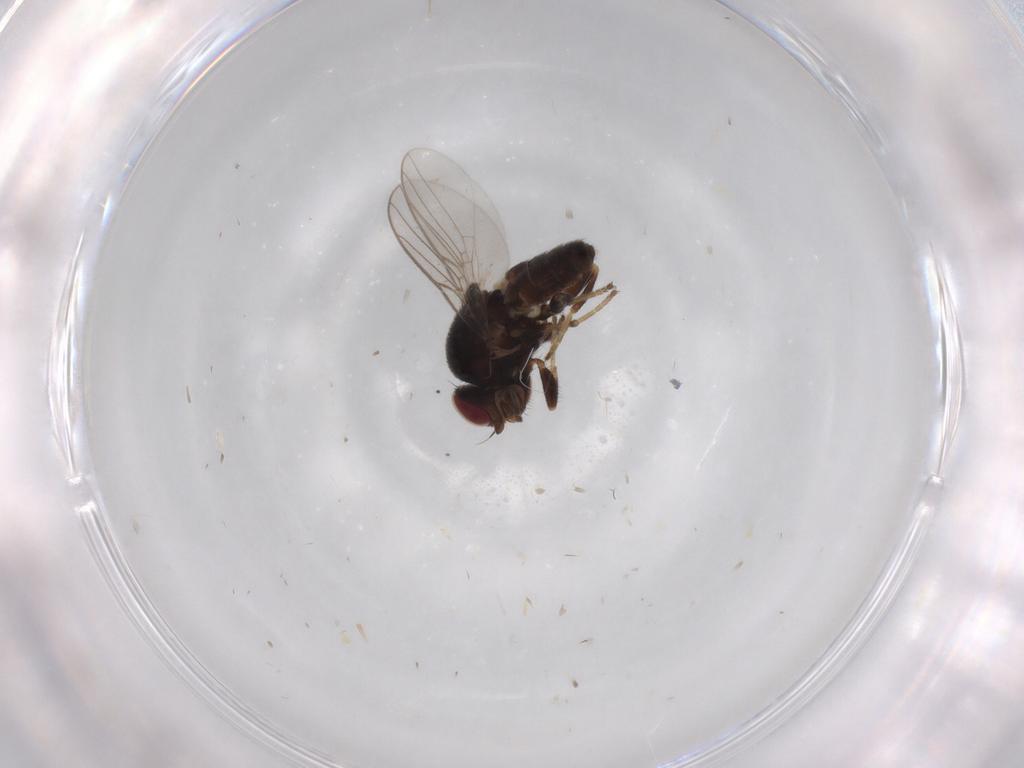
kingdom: Animalia
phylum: Arthropoda
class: Insecta
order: Diptera
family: Chloropidae
